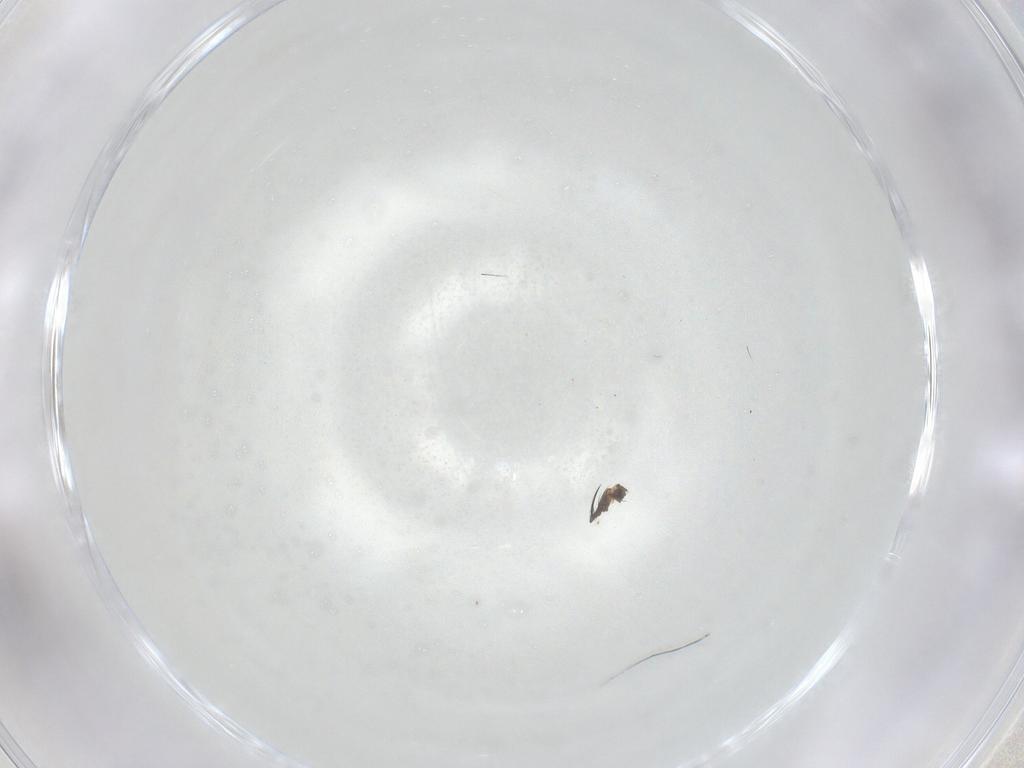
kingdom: Animalia
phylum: Arthropoda
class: Insecta
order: Diptera
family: Tachinidae
